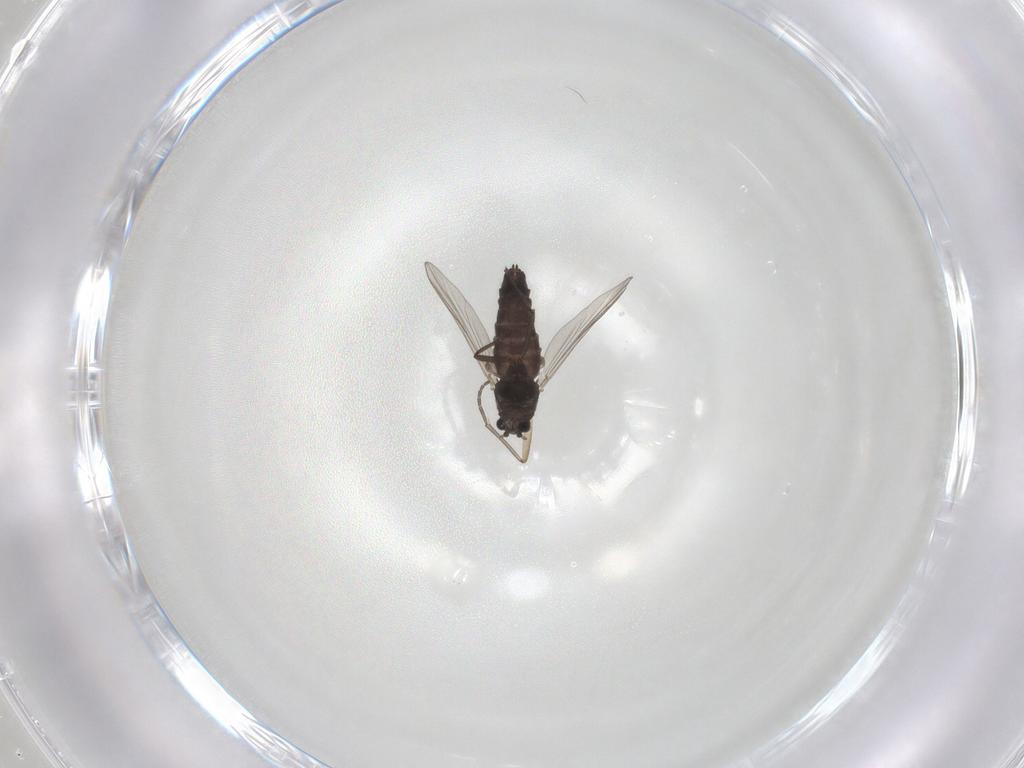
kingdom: Animalia
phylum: Arthropoda
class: Insecta
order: Diptera
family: Chironomidae
